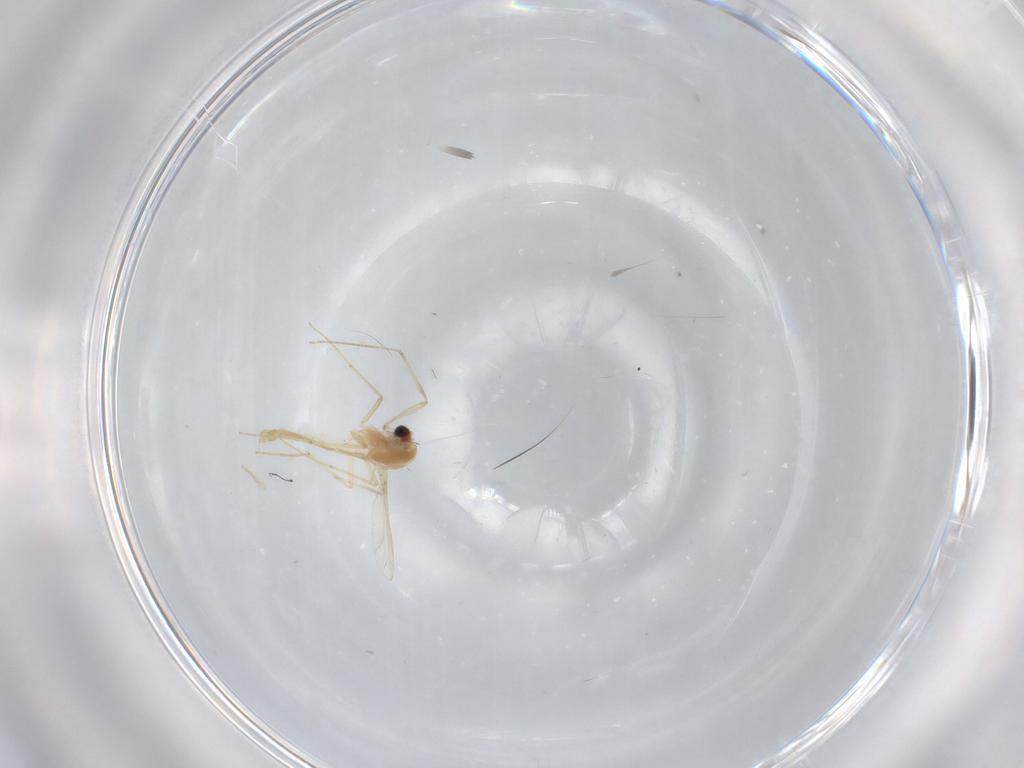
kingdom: Animalia
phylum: Arthropoda
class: Insecta
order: Diptera
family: Chironomidae
